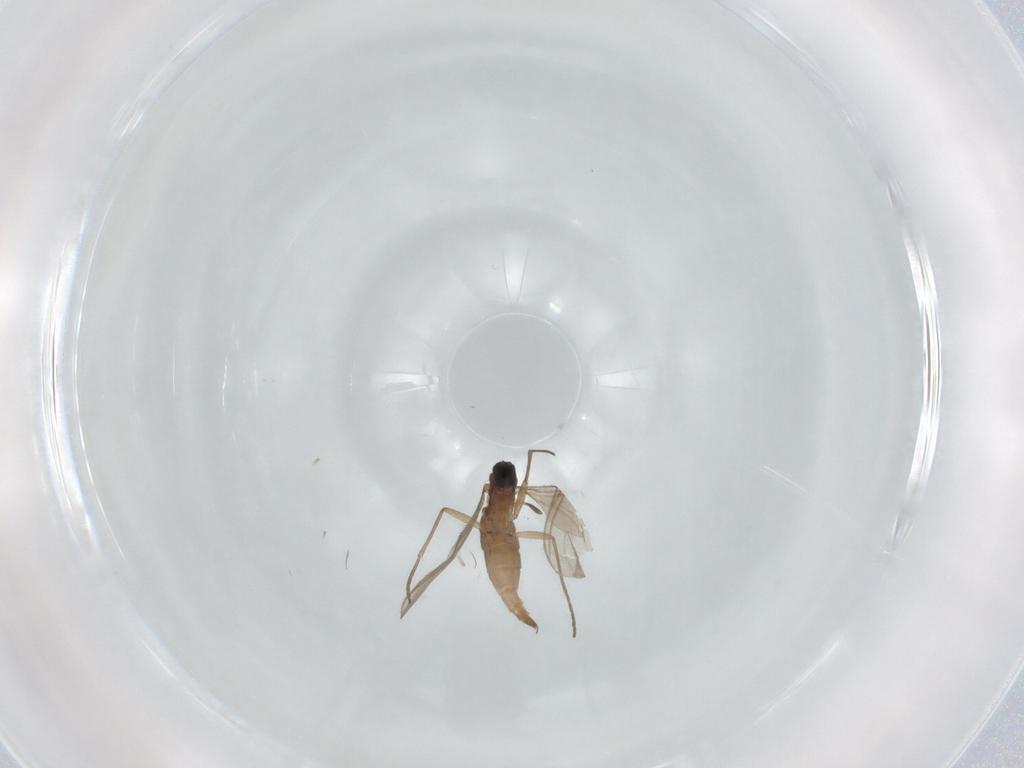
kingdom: Animalia
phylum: Arthropoda
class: Insecta
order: Diptera
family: Sciaridae
